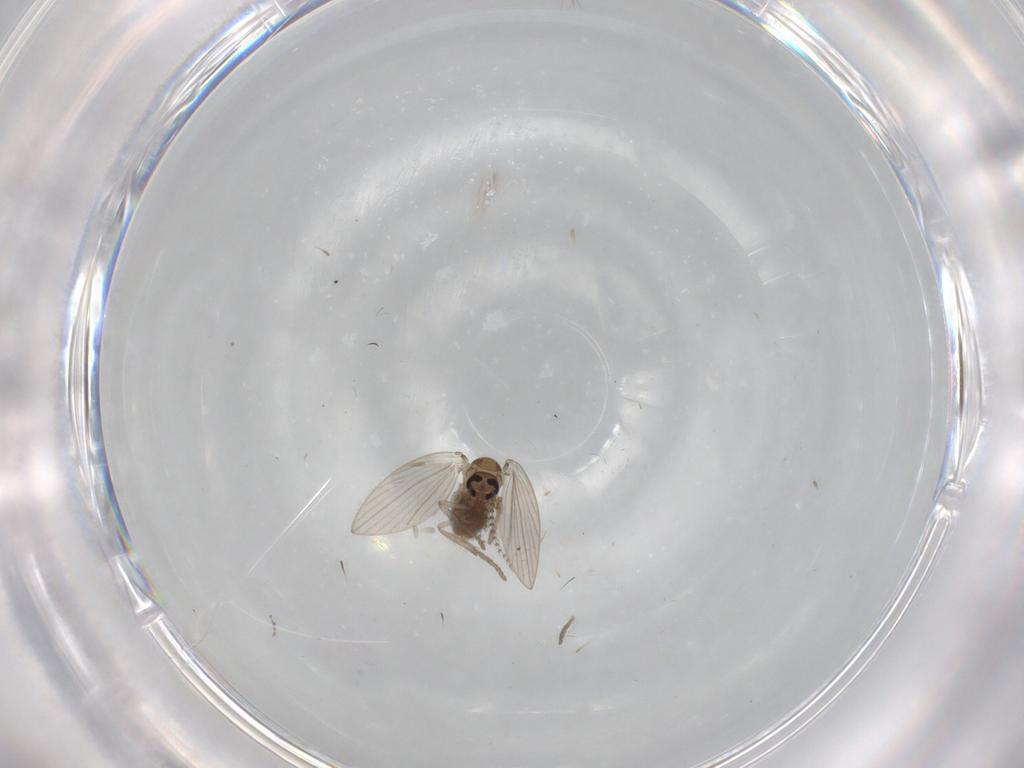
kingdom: Animalia
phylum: Arthropoda
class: Insecta
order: Diptera
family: Psychodidae
